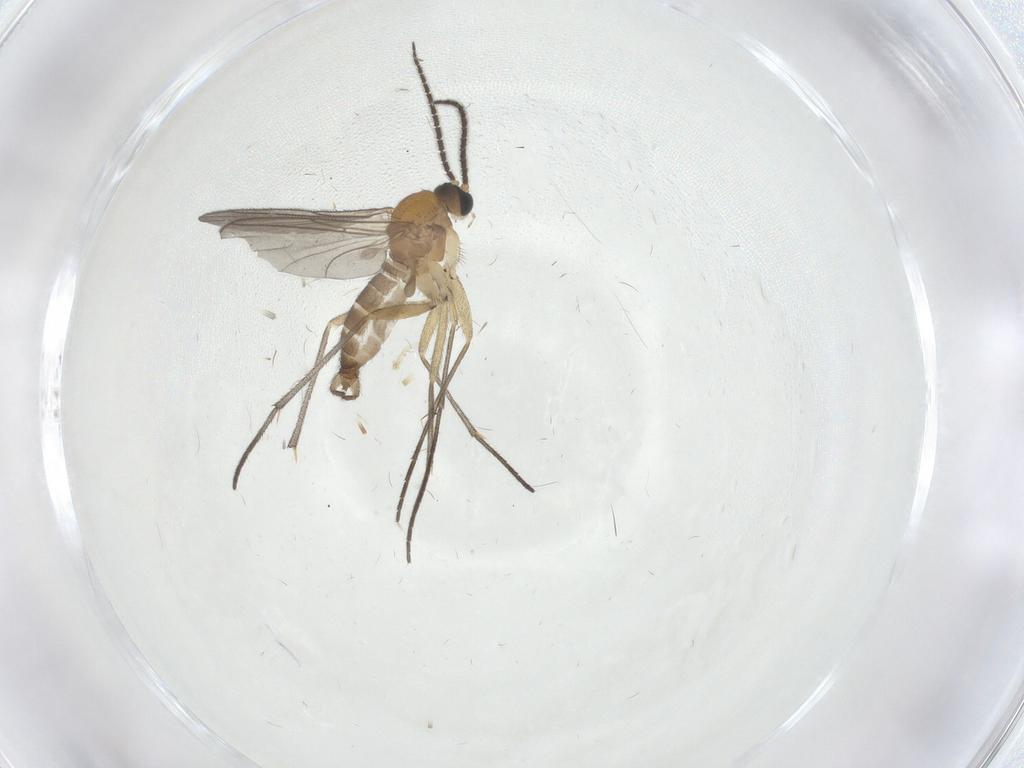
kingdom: Animalia
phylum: Arthropoda
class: Insecta
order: Diptera
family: Sciaridae
